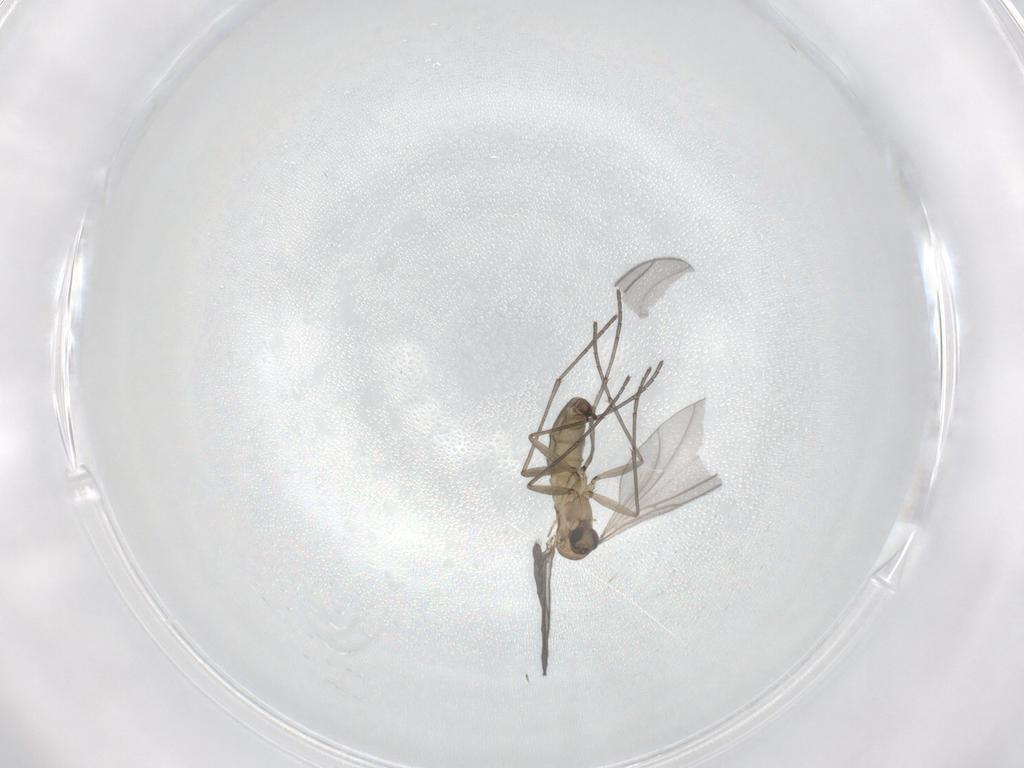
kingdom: Animalia
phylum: Arthropoda
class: Insecta
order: Diptera
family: Sciaridae
